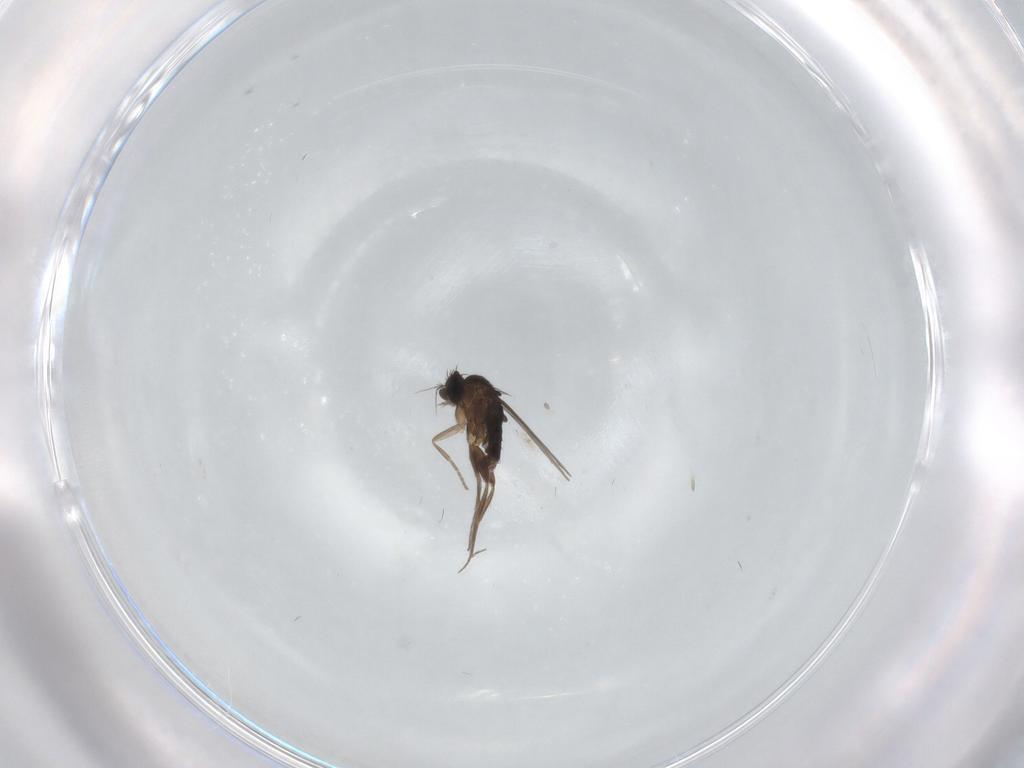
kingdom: Animalia
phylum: Arthropoda
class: Insecta
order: Diptera
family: Phoridae
